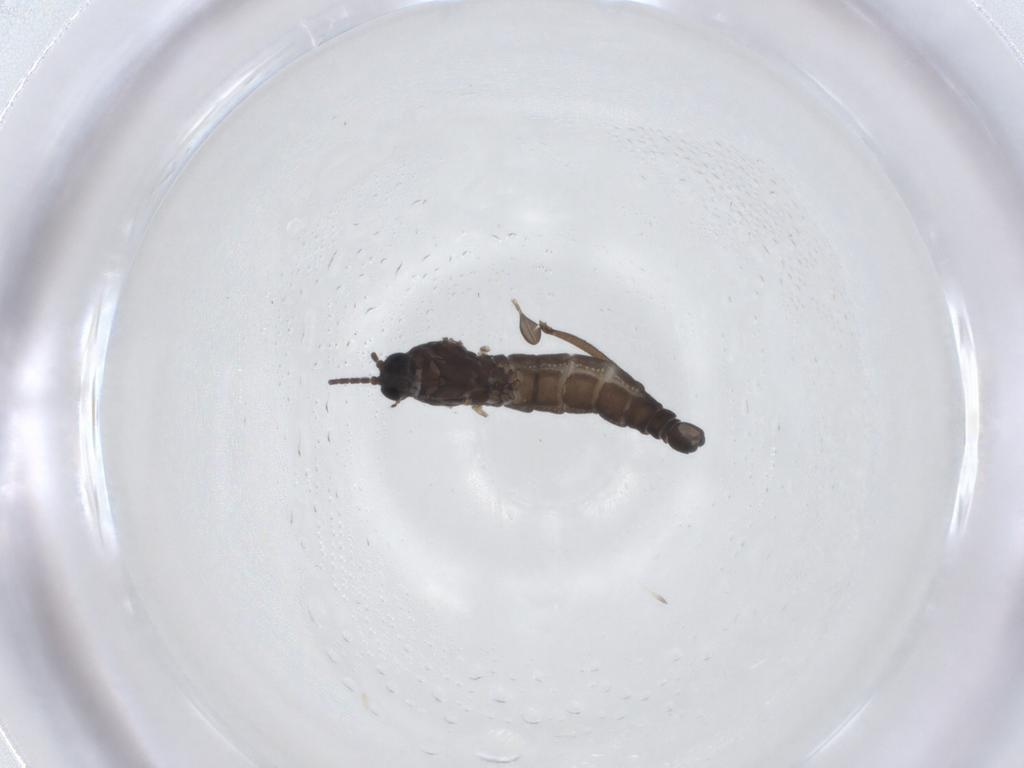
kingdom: Animalia
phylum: Arthropoda
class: Insecta
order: Diptera
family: Sciaridae
